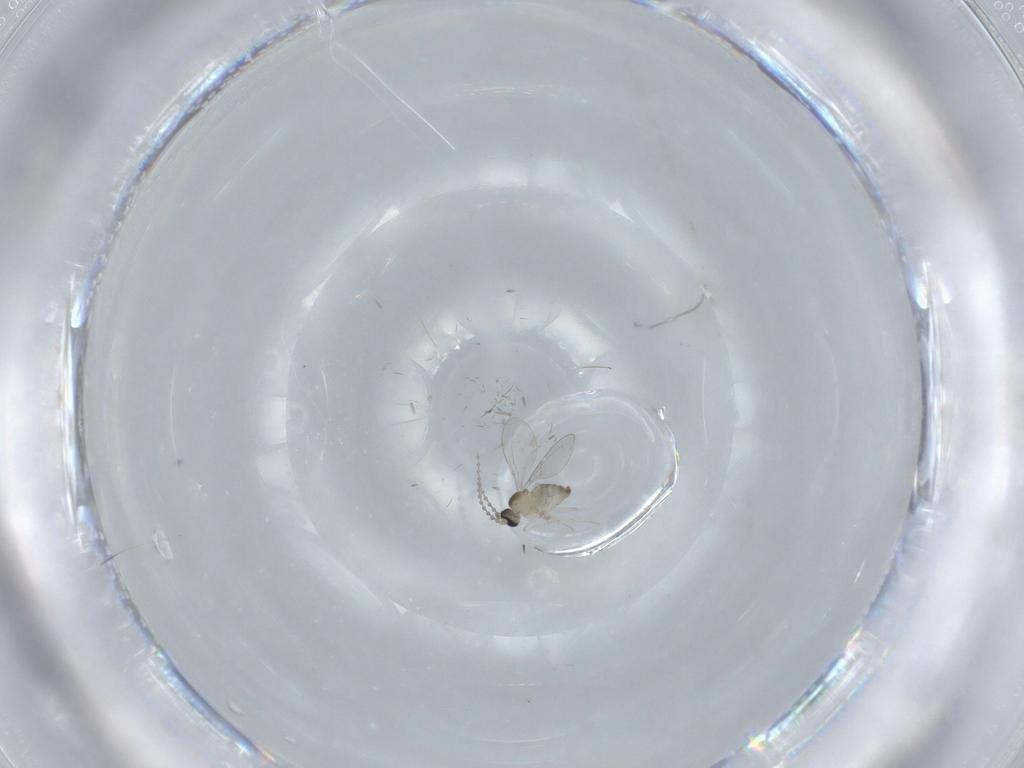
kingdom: Animalia
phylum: Arthropoda
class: Insecta
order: Diptera
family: Cecidomyiidae
